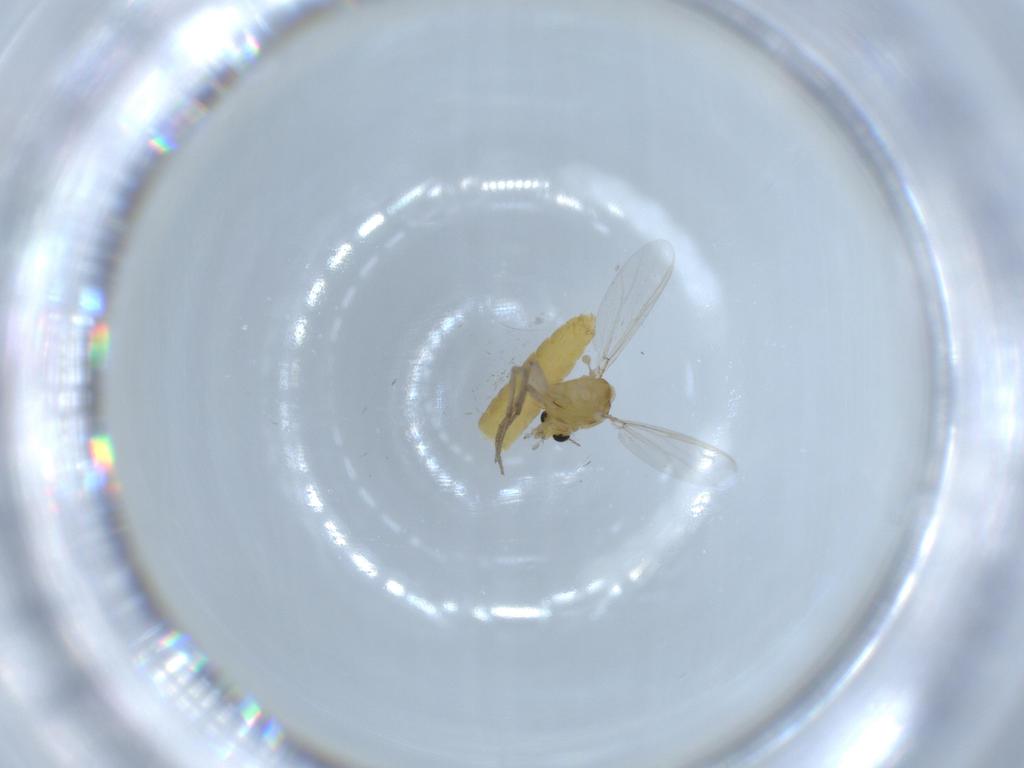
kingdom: Animalia
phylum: Arthropoda
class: Insecta
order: Diptera
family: Chironomidae
